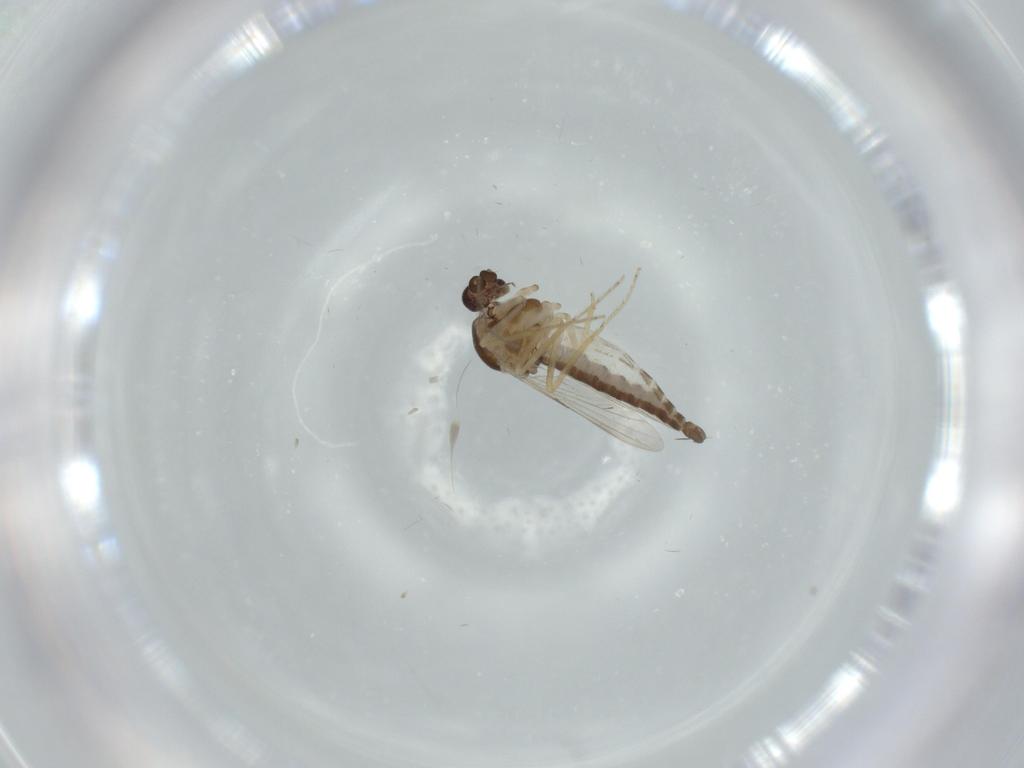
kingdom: Animalia
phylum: Arthropoda
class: Insecta
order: Diptera
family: Ceratopogonidae
